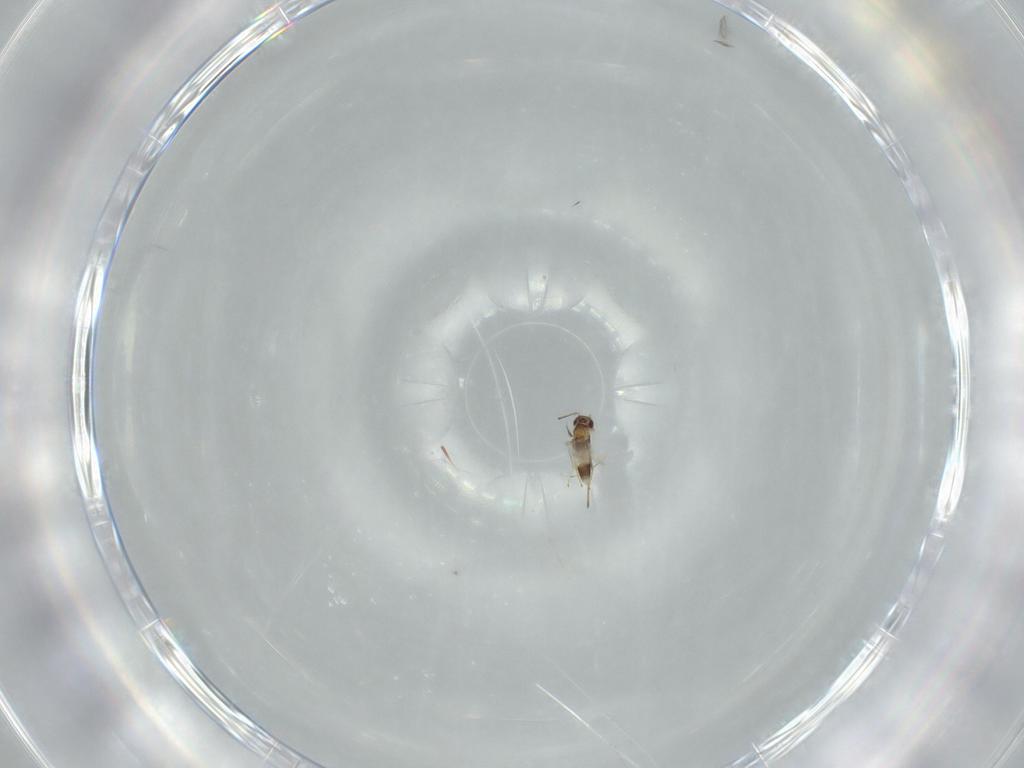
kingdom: Animalia
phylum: Arthropoda
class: Insecta
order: Hymenoptera
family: Mymaridae
